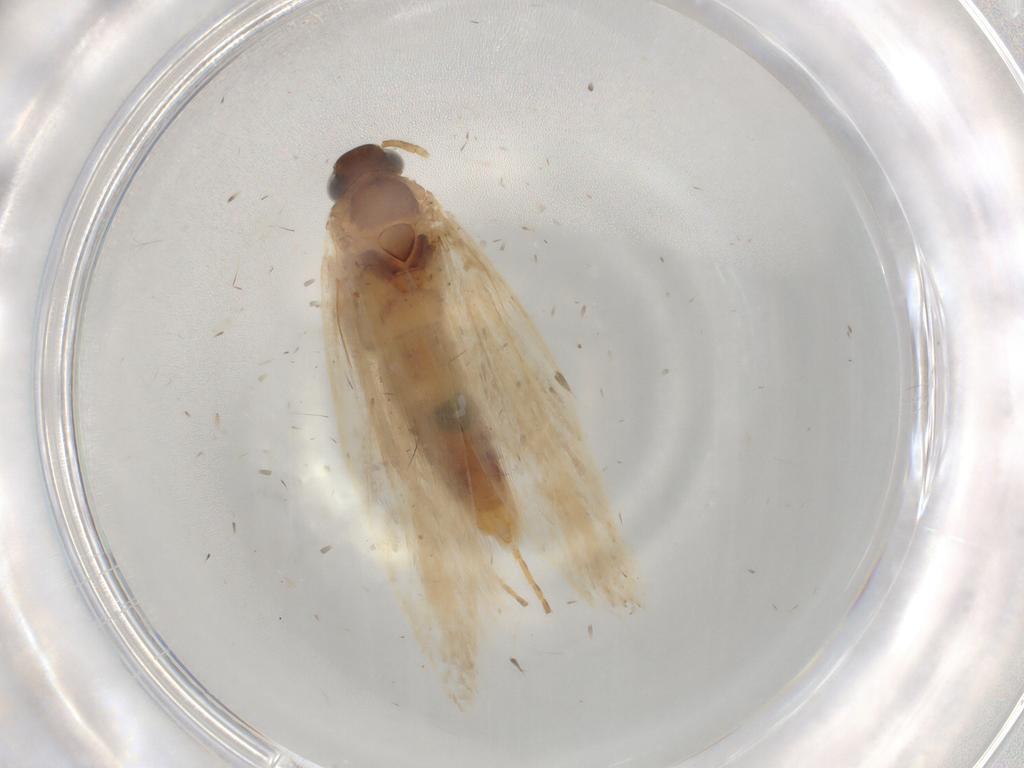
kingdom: Animalia
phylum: Arthropoda
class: Insecta
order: Lepidoptera
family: Gelechiidae
